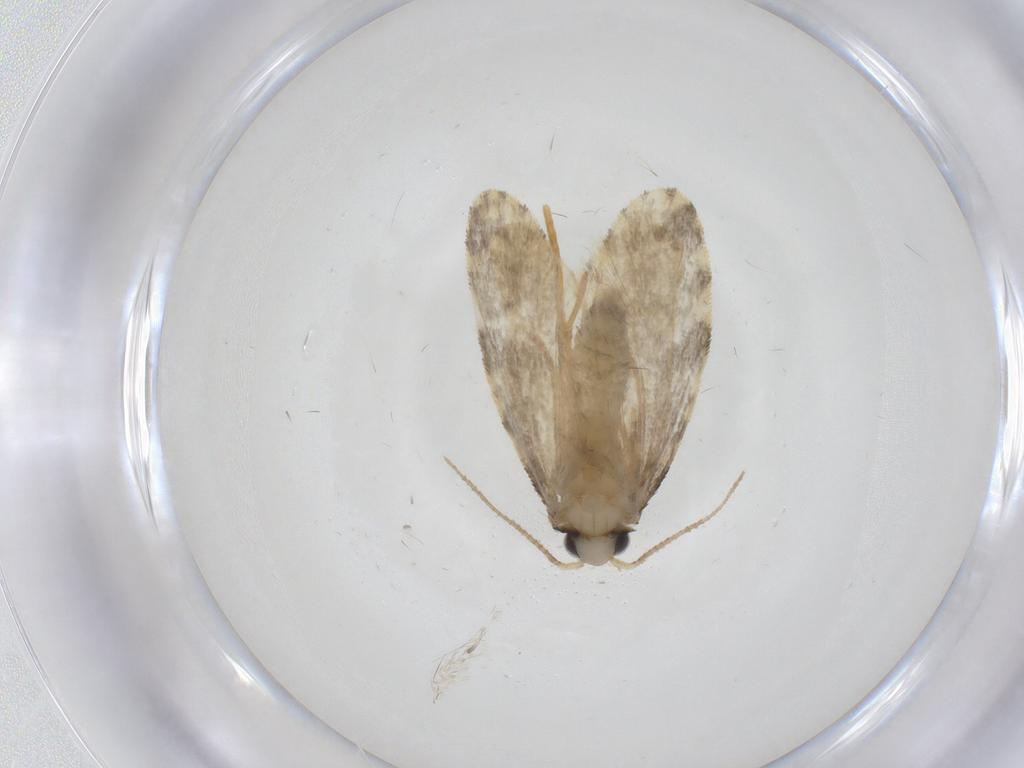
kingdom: Animalia
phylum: Arthropoda
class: Insecta
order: Lepidoptera
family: Psychidae
